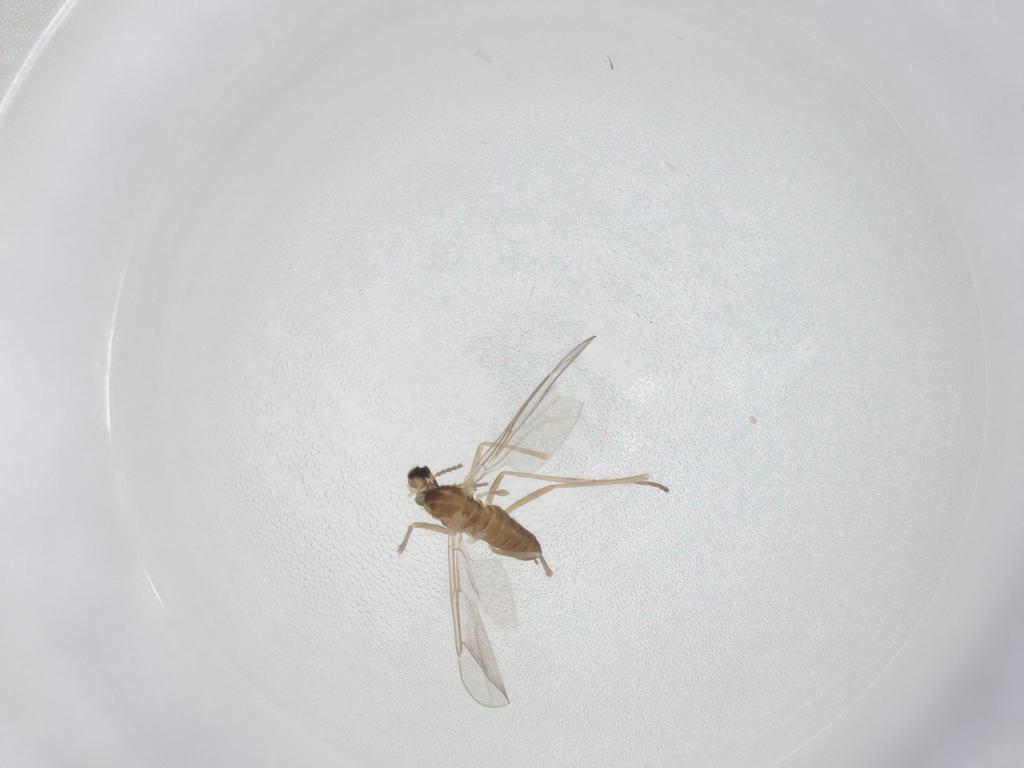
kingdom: Animalia
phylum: Arthropoda
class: Insecta
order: Diptera
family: Cecidomyiidae
